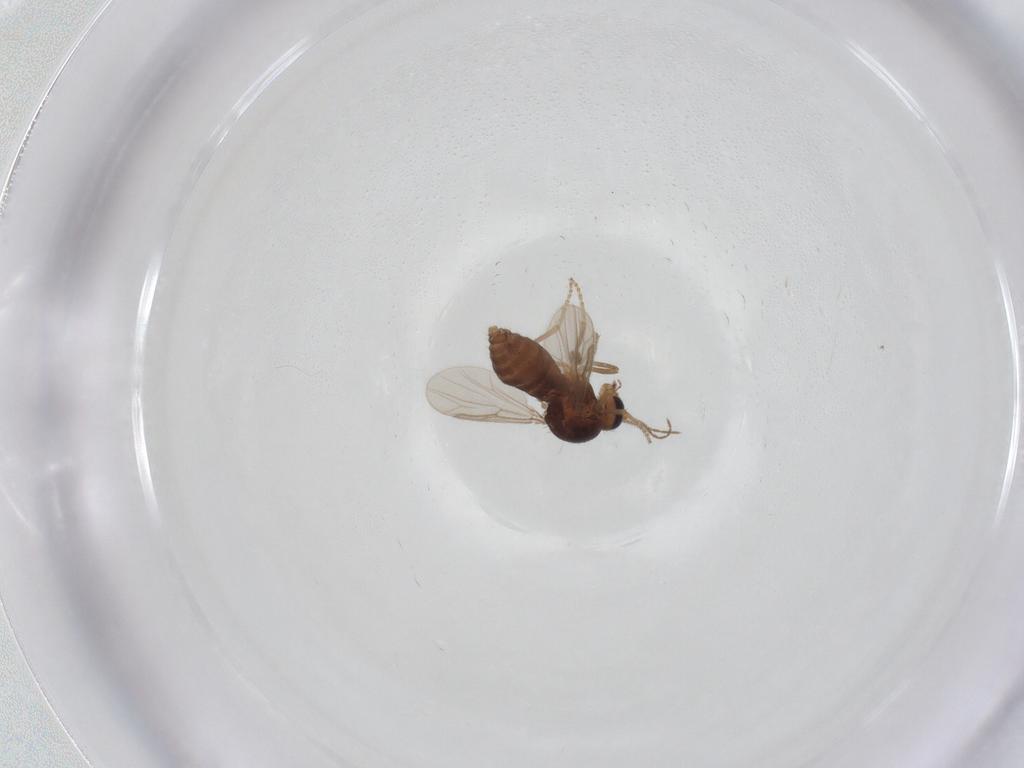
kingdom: Animalia
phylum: Arthropoda
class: Insecta
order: Diptera
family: Ceratopogonidae
